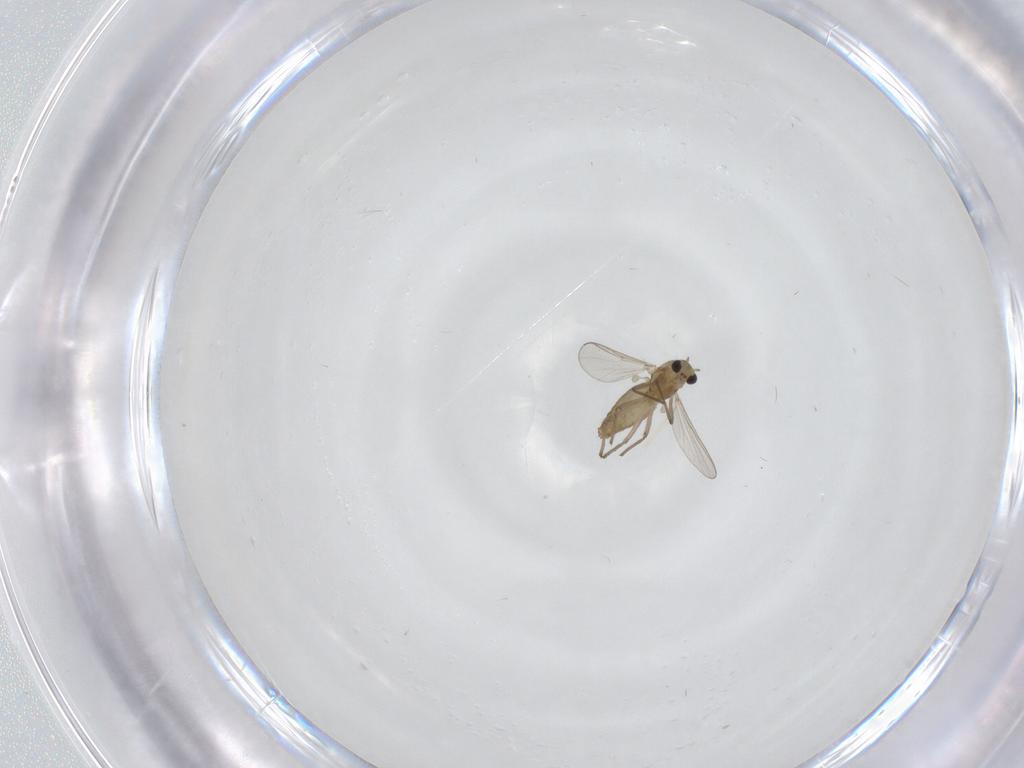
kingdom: Animalia
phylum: Arthropoda
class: Insecta
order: Diptera
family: Chironomidae
